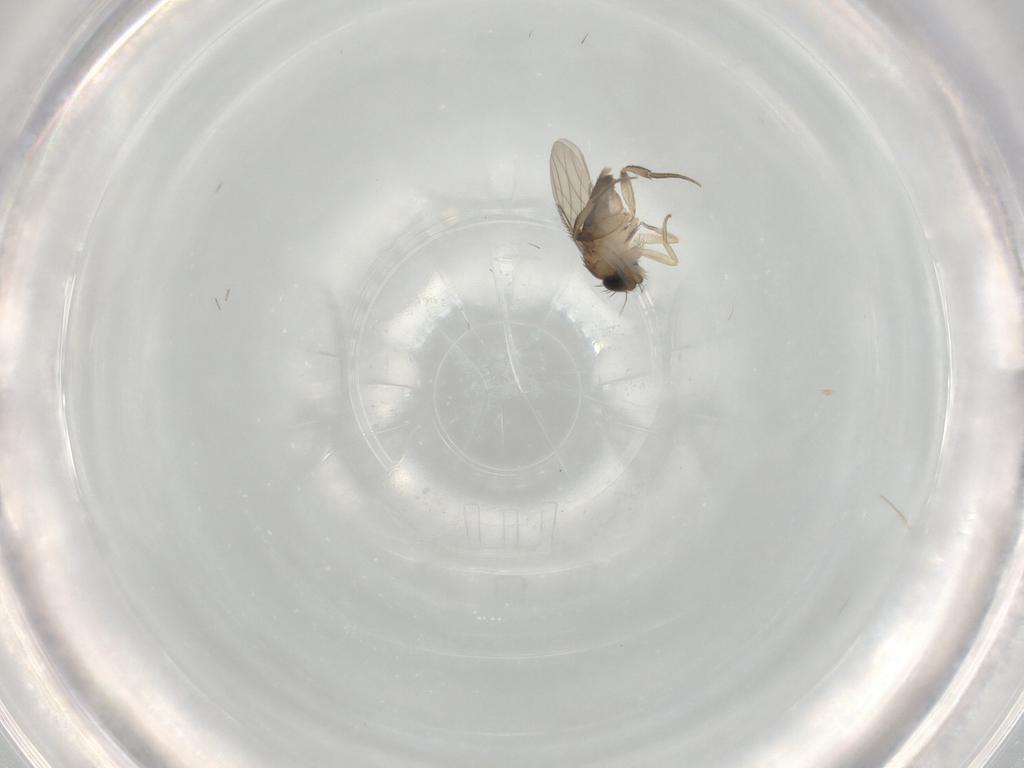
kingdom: Animalia
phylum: Arthropoda
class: Insecta
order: Diptera
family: Phoridae
